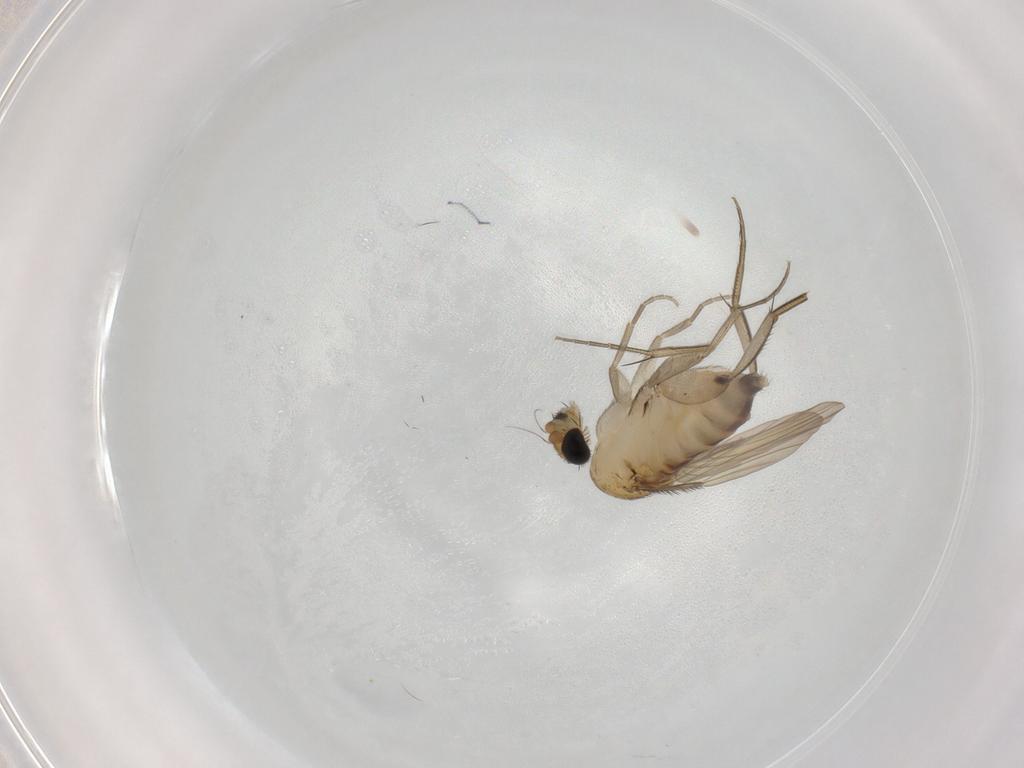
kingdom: Animalia
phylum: Arthropoda
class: Insecta
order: Diptera
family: Phoridae
